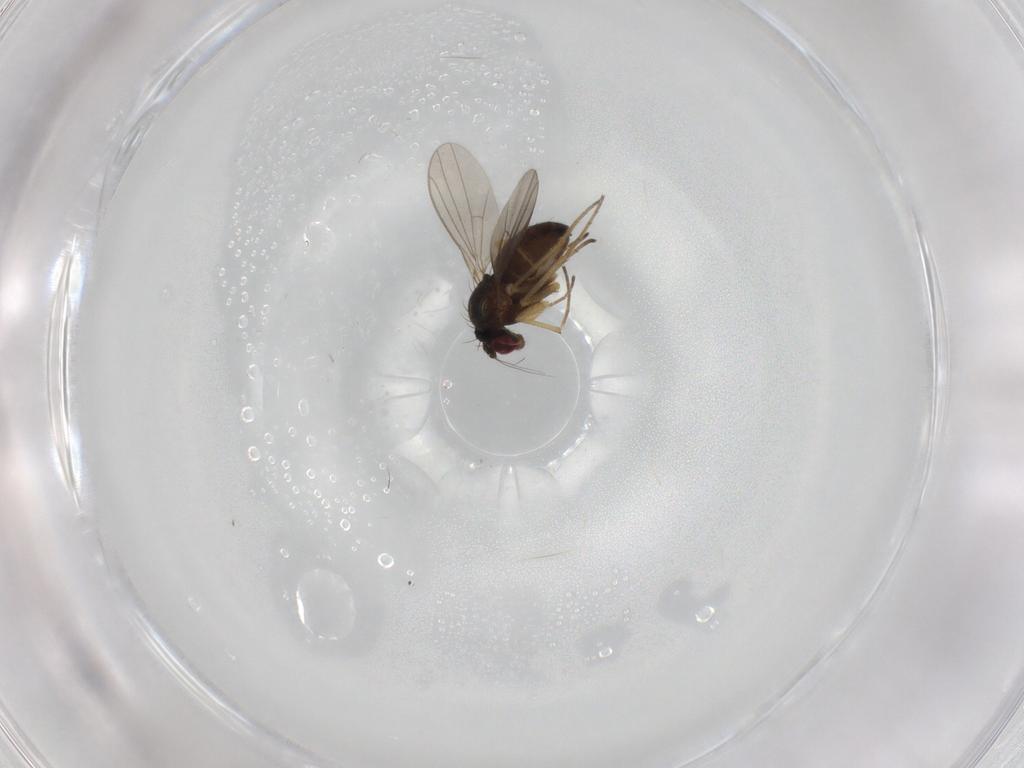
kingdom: Animalia
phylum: Arthropoda
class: Insecta
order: Diptera
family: Dolichopodidae
